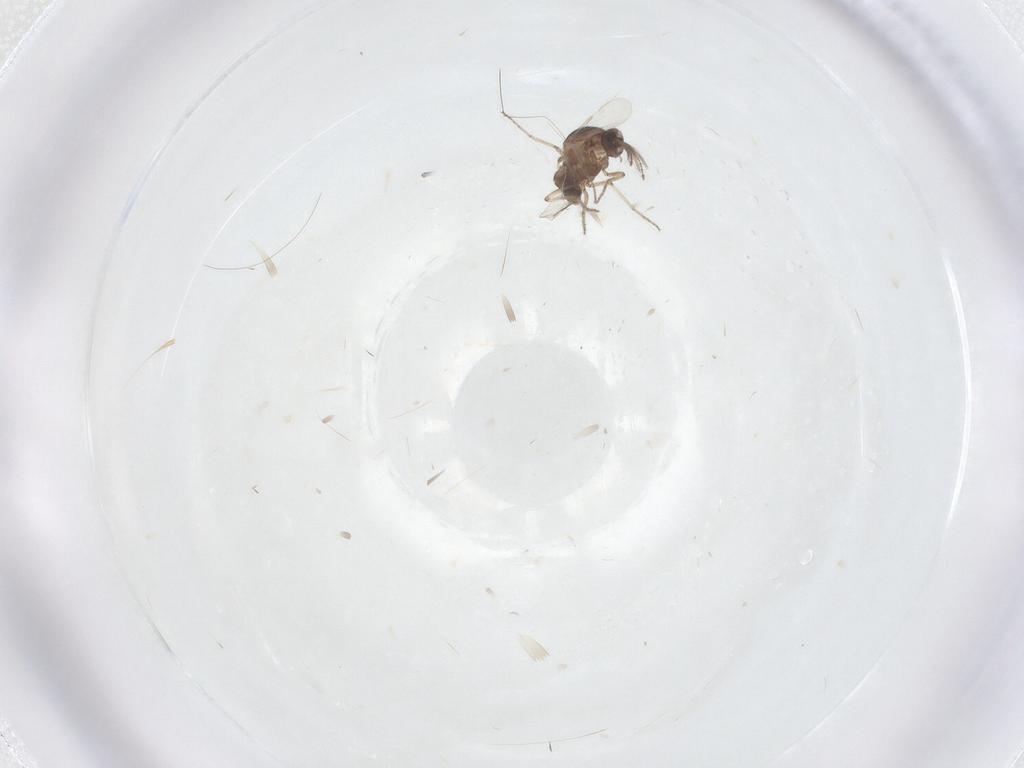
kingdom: Animalia
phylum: Arthropoda
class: Insecta
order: Diptera
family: Ceratopogonidae
